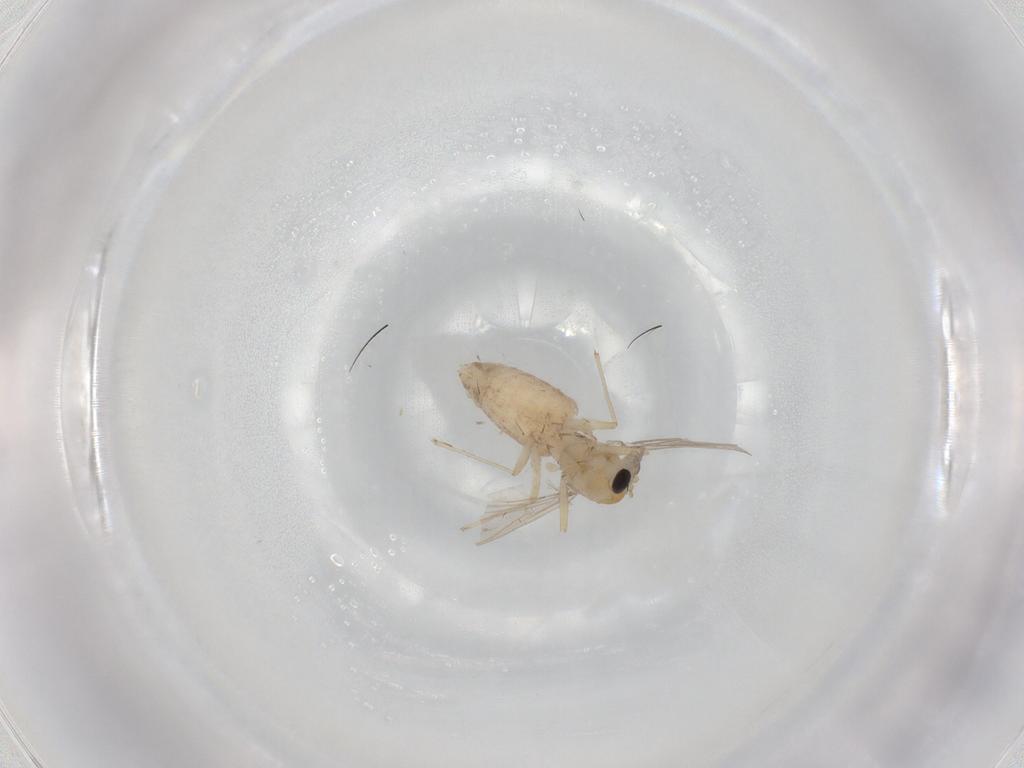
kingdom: Animalia
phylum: Arthropoda
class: Insecta
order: Diptera
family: Chironomidae
